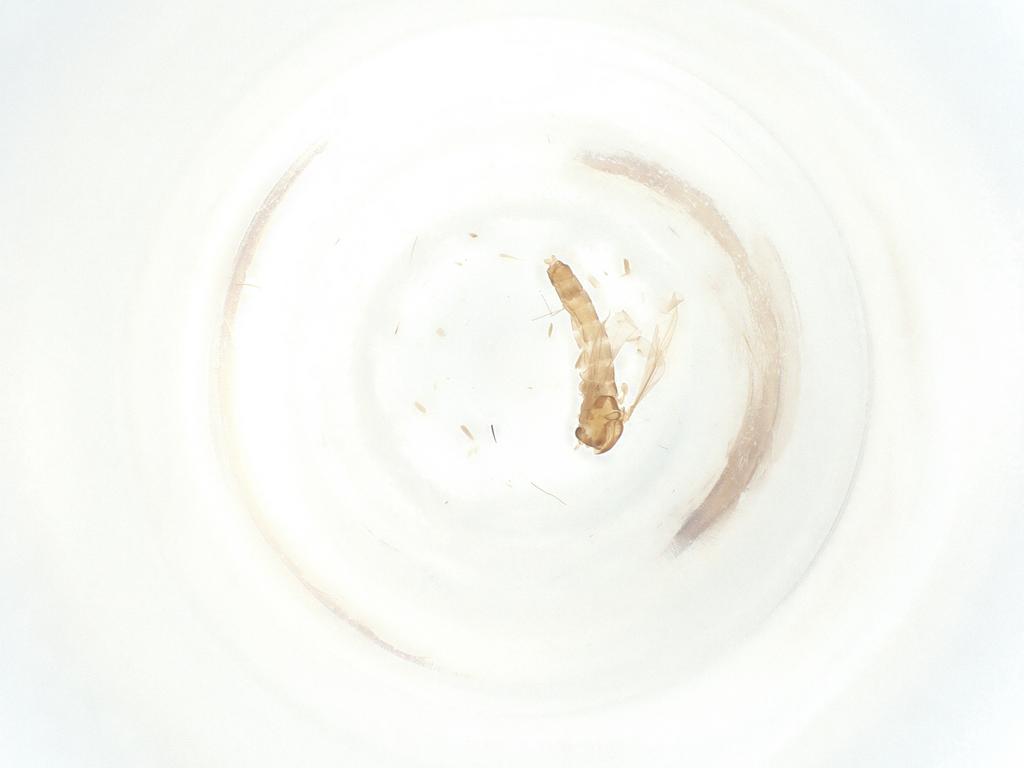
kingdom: Animalia
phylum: Arthropoda
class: Insecta
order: Diptera
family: Chironomidae
